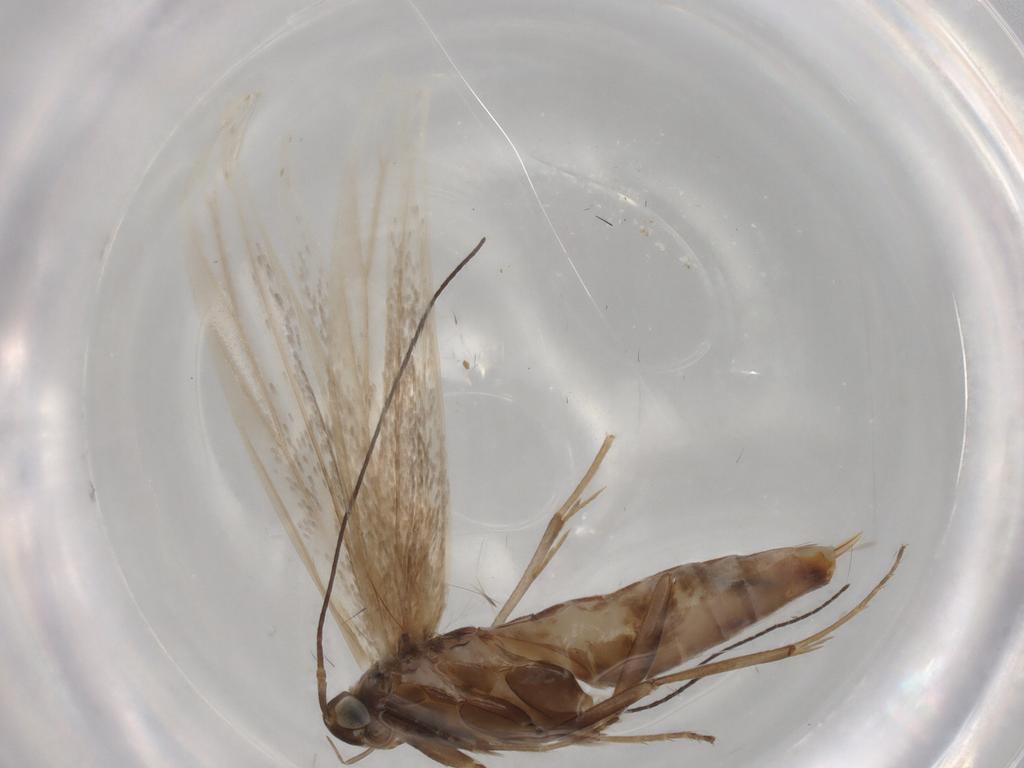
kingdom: Animalia
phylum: Arthropoda
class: Insecta
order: Lepidoptera
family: Coleophoridae
